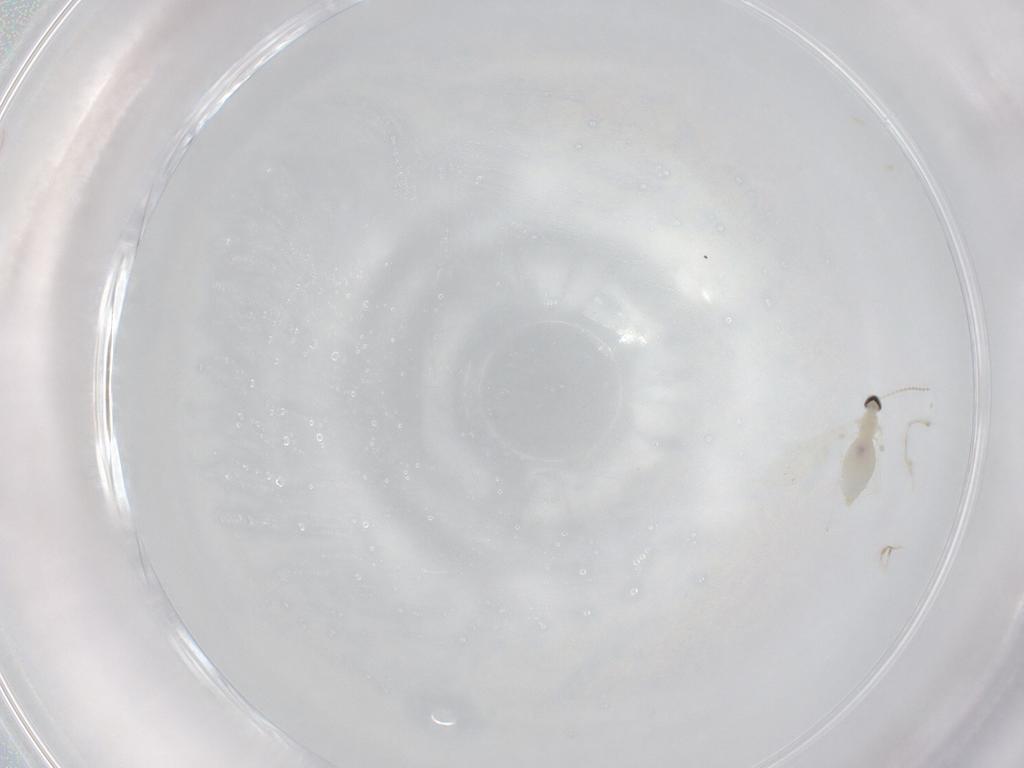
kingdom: Animalia
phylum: Arthropoda
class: Insecta
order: Diptera
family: Cecidomyiidae
